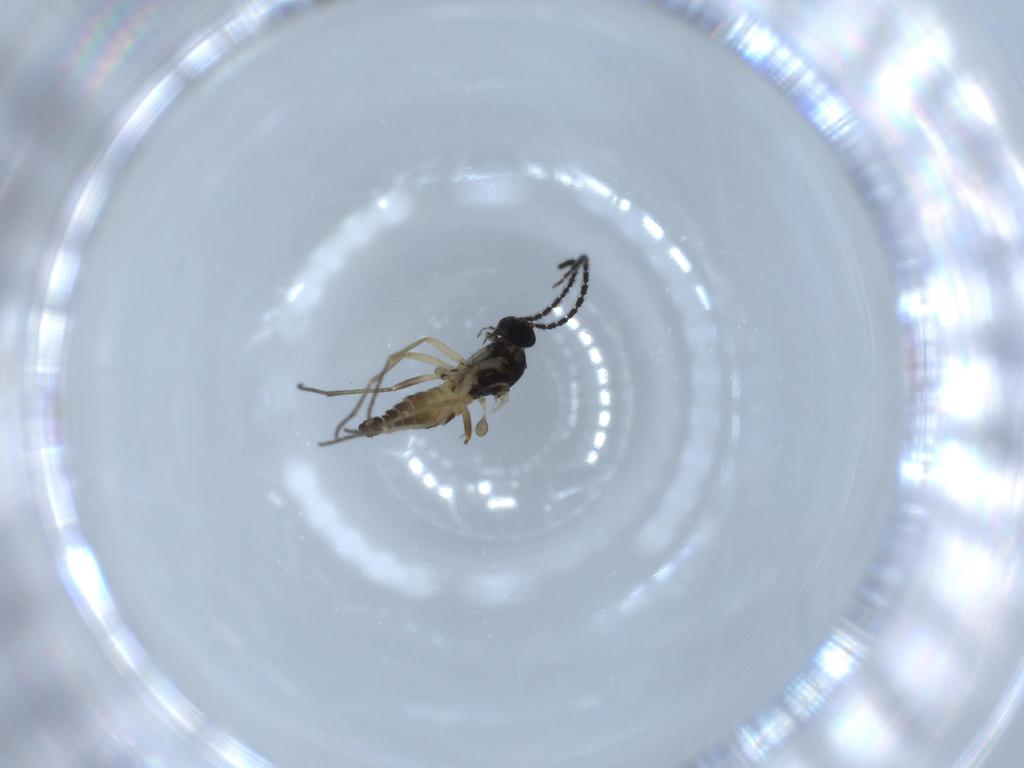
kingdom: Animalia
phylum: Arthropoda
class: Insecta
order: Diptera
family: Sciaridae
